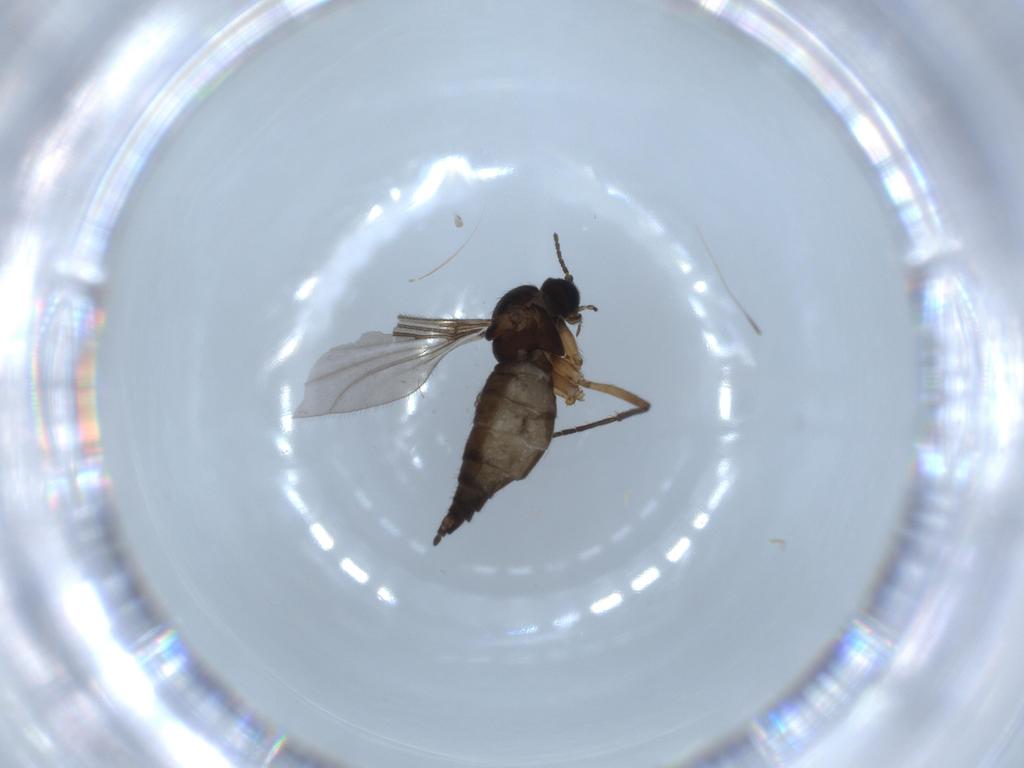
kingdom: Animalia
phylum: Arthropoda
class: Insecta
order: Diptera
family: Sciaridae
